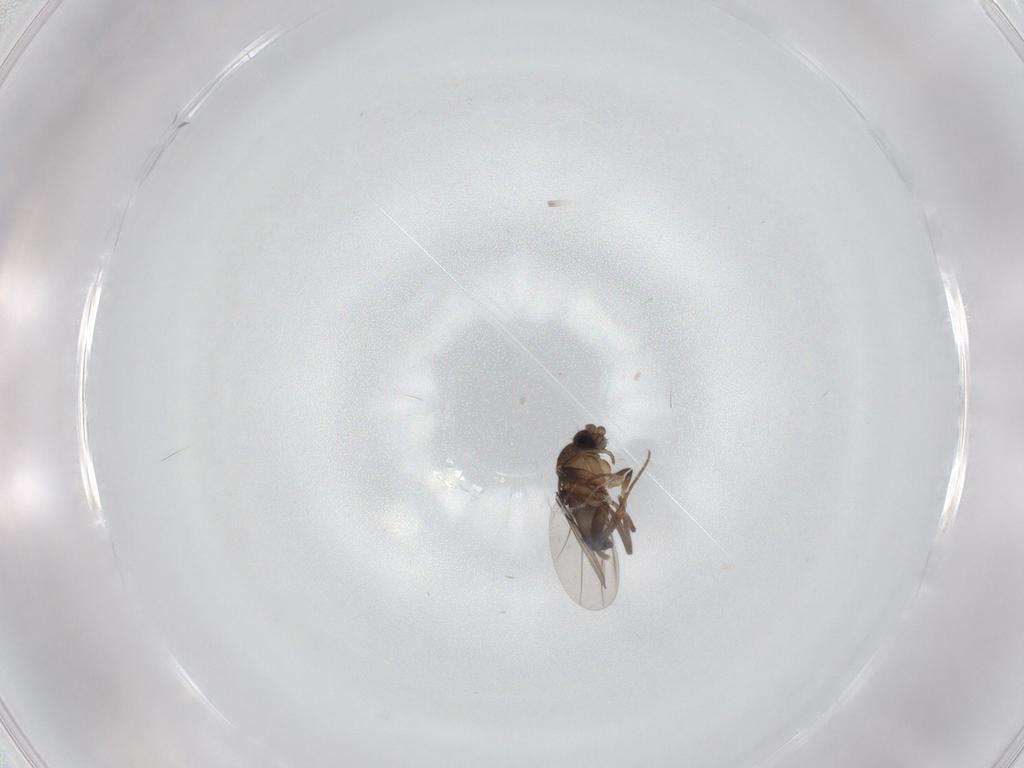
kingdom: Animalia
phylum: Arthropoda
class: Insecta
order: Diptera
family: Phoridae
